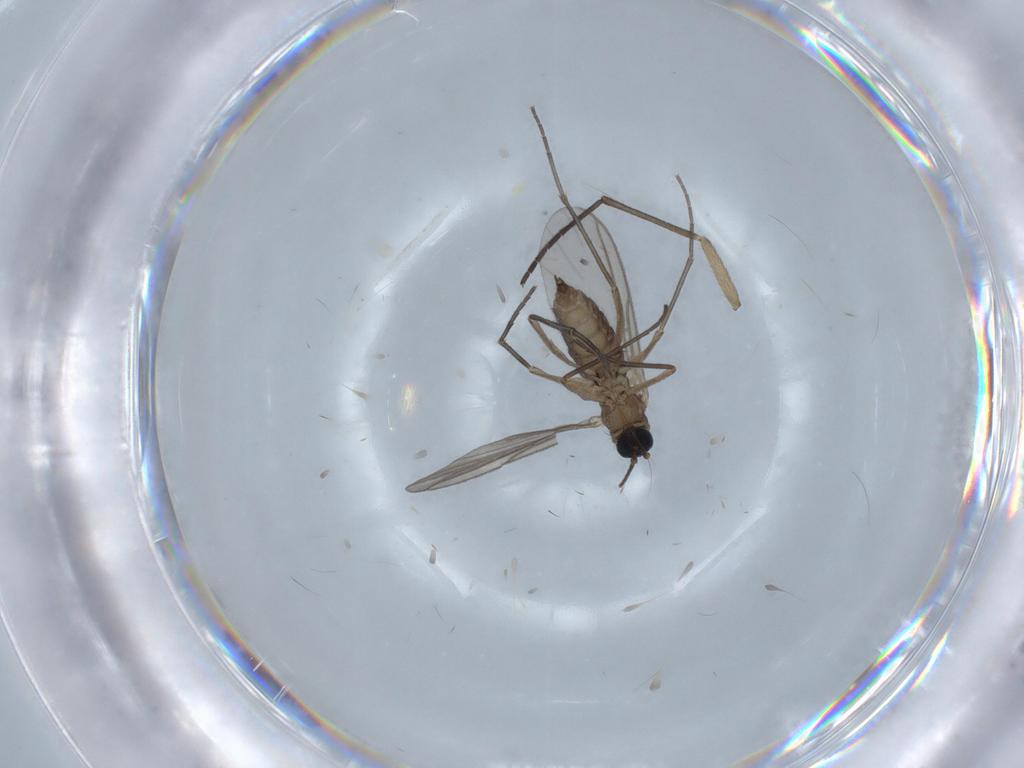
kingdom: Animalia
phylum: Arthropoda
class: Insecta
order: Diptera
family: Sciaridae
